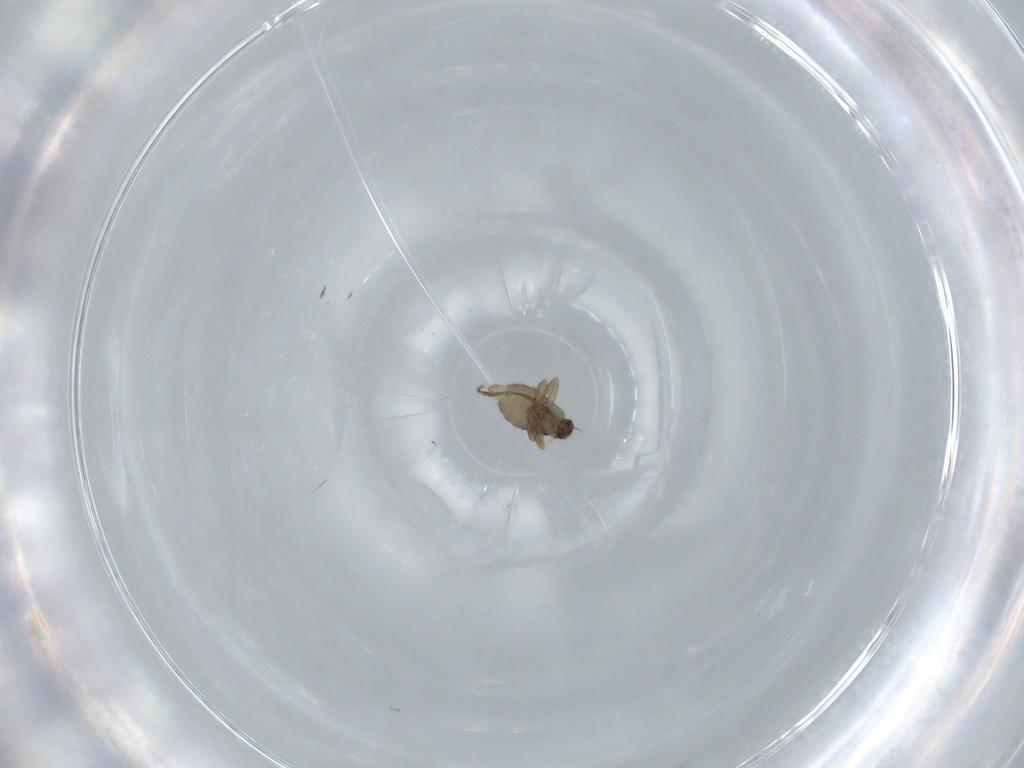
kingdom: Animalia
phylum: Arthropoda
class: Insecta
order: Diptera
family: Phoridae
